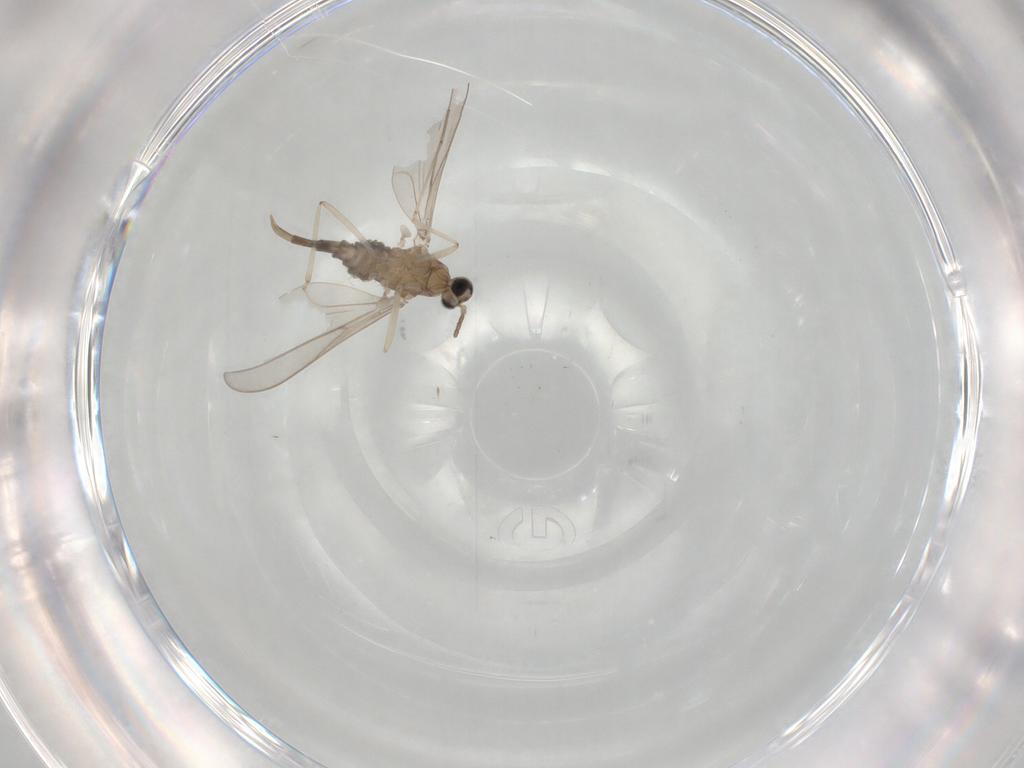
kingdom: Animalia
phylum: Arthropoda
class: Insecta
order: Diptera
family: Cecidomyiidae
